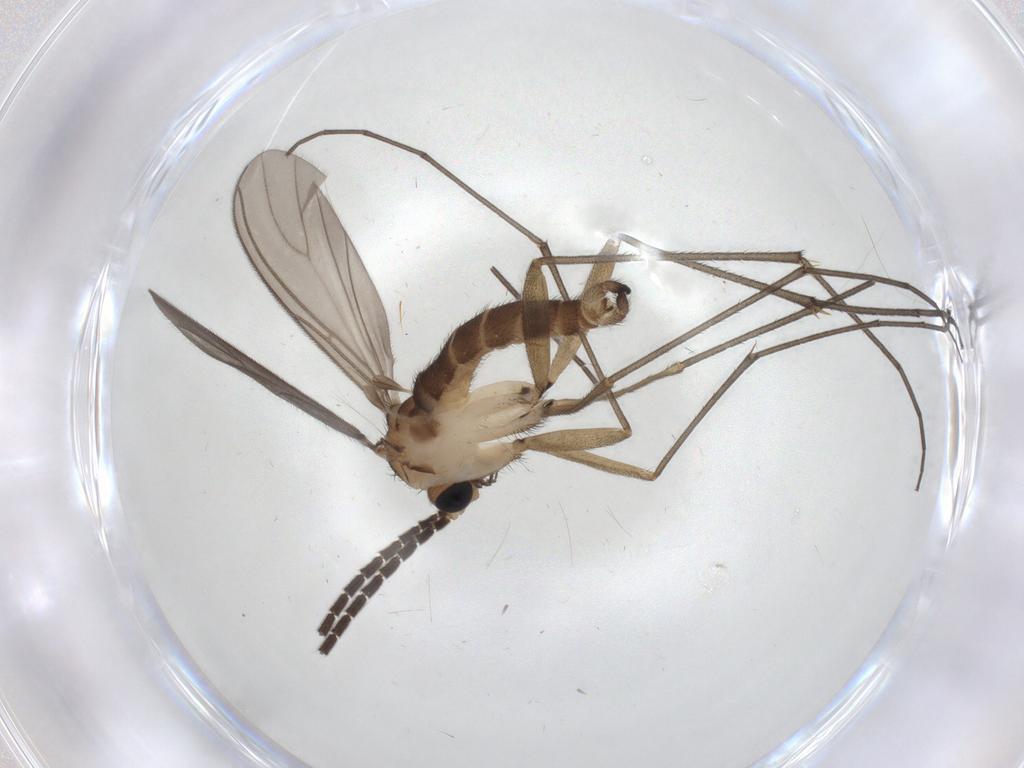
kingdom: Animalia
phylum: Arthropoda
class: Insecta
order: Diptera
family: Sciaridae
